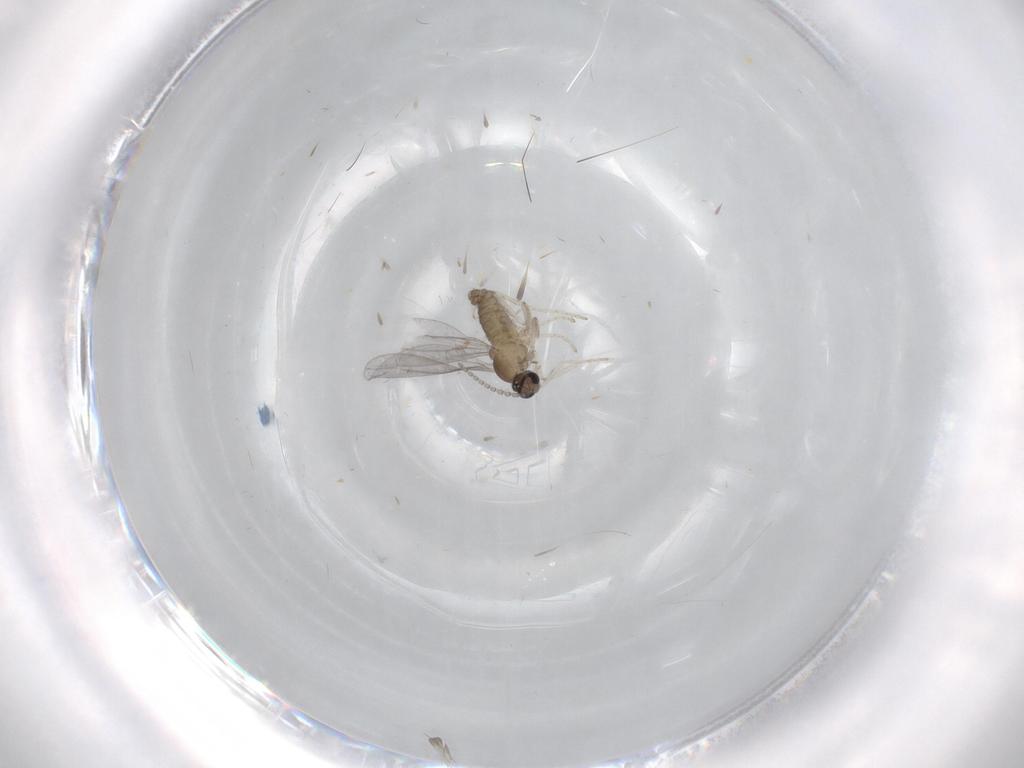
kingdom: Animalia
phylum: Arthropoda
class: Insecta
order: Diptera
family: Cecidomyiidae
